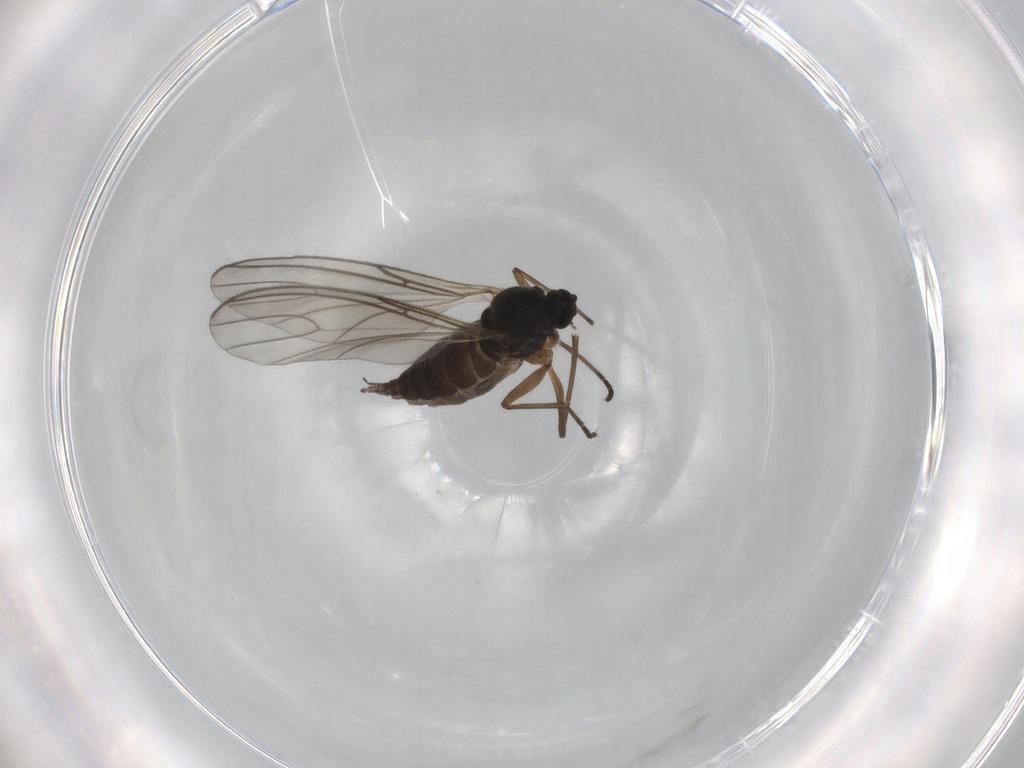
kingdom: Animalia
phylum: Arthropoda
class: Insecta
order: Diptera
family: Sciaridae
